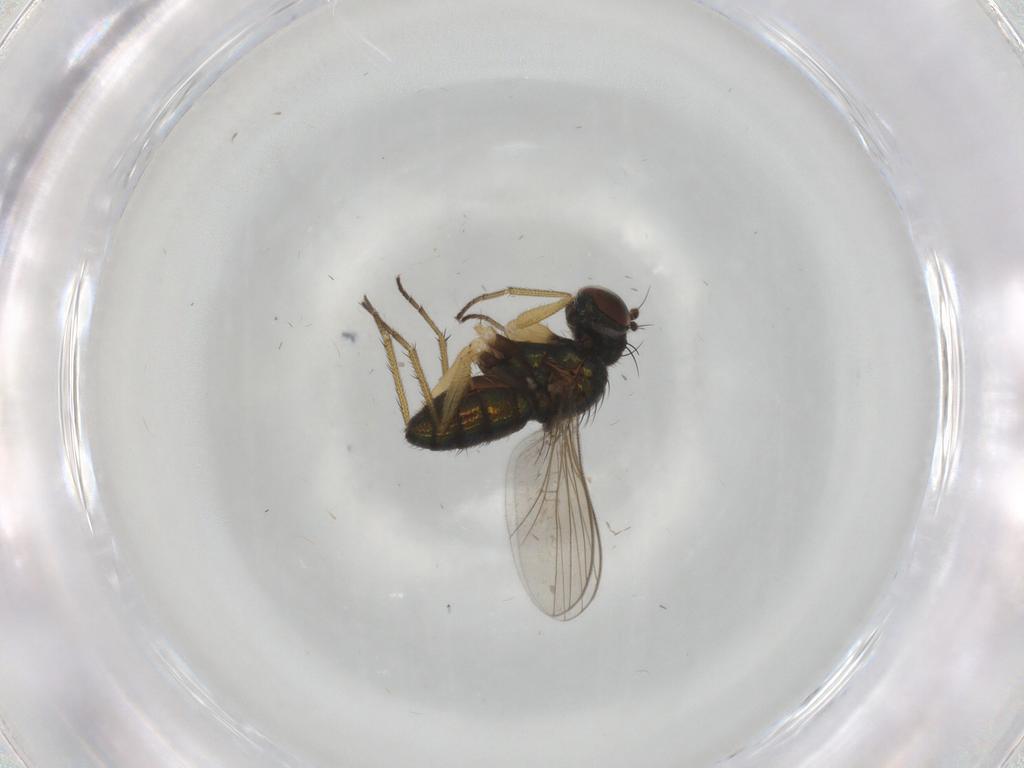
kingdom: Animalia
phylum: Arthropoda
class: Insecta
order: Diptera
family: Dolichopodidae
